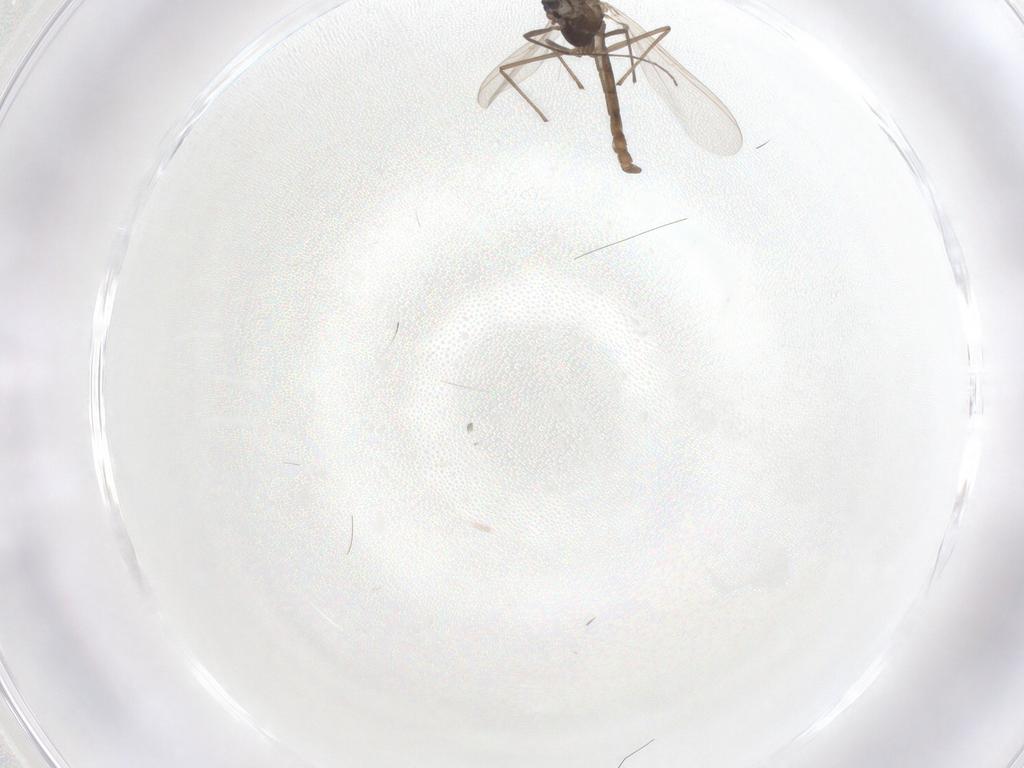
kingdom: Animalia
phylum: Arthropoda
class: Insecta
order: Diptera
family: Chironomidae
